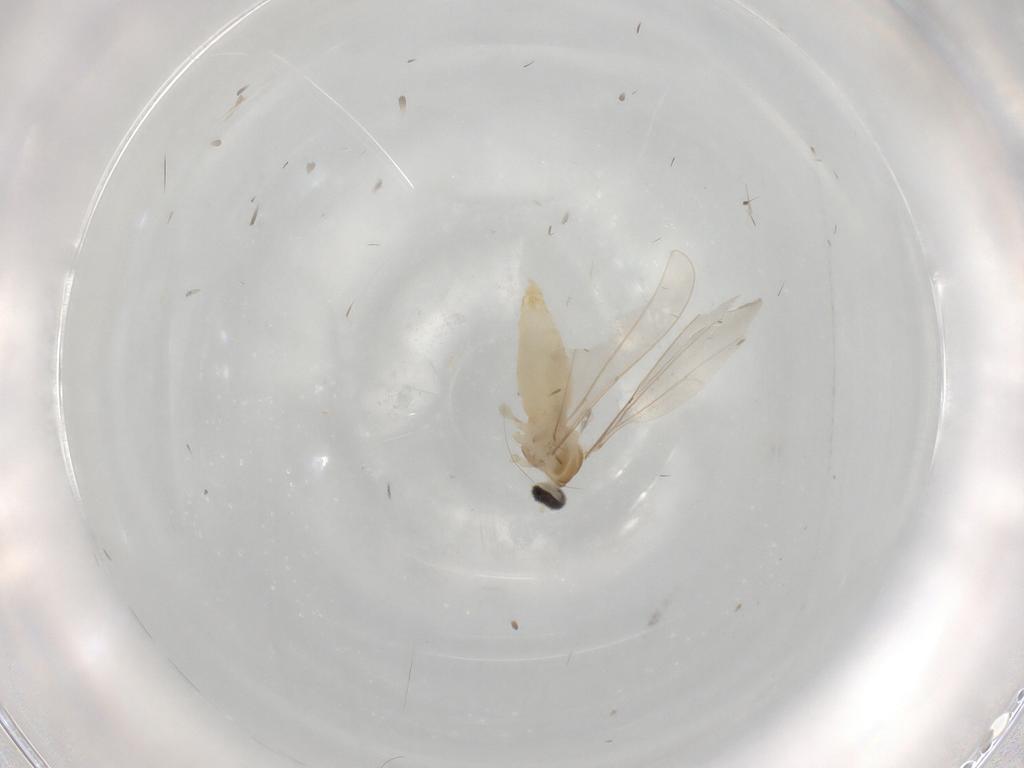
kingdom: Animalia
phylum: Arthropoda
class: Insecta
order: Diptera
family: Cecidomyiidae
